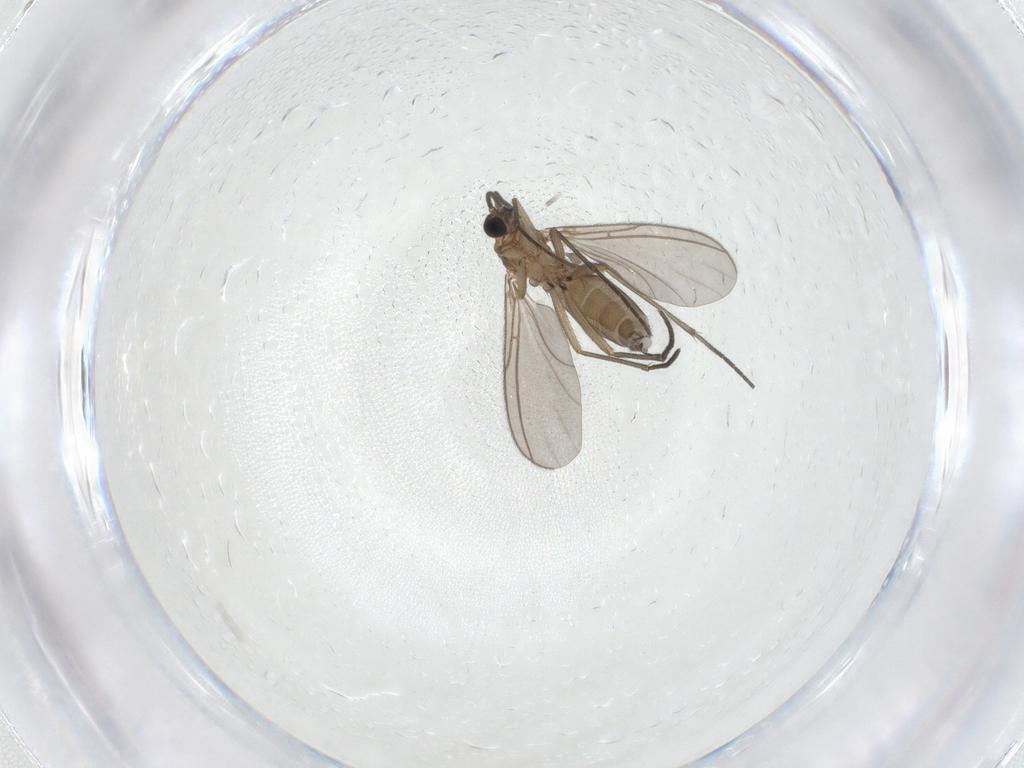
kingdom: Animalia
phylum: Arthropoda
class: Insecta
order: Diptera
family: Sciaridae
